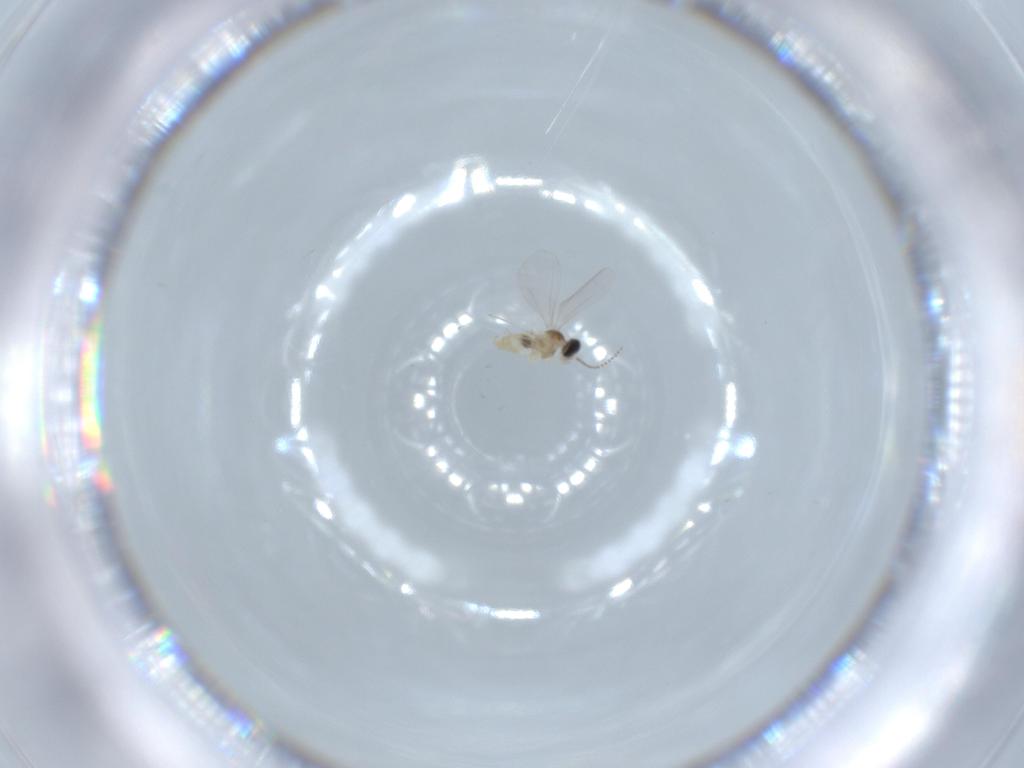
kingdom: Animalia
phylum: Arthropoda
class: Insecta
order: Diptera
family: Cecidomyiidae
